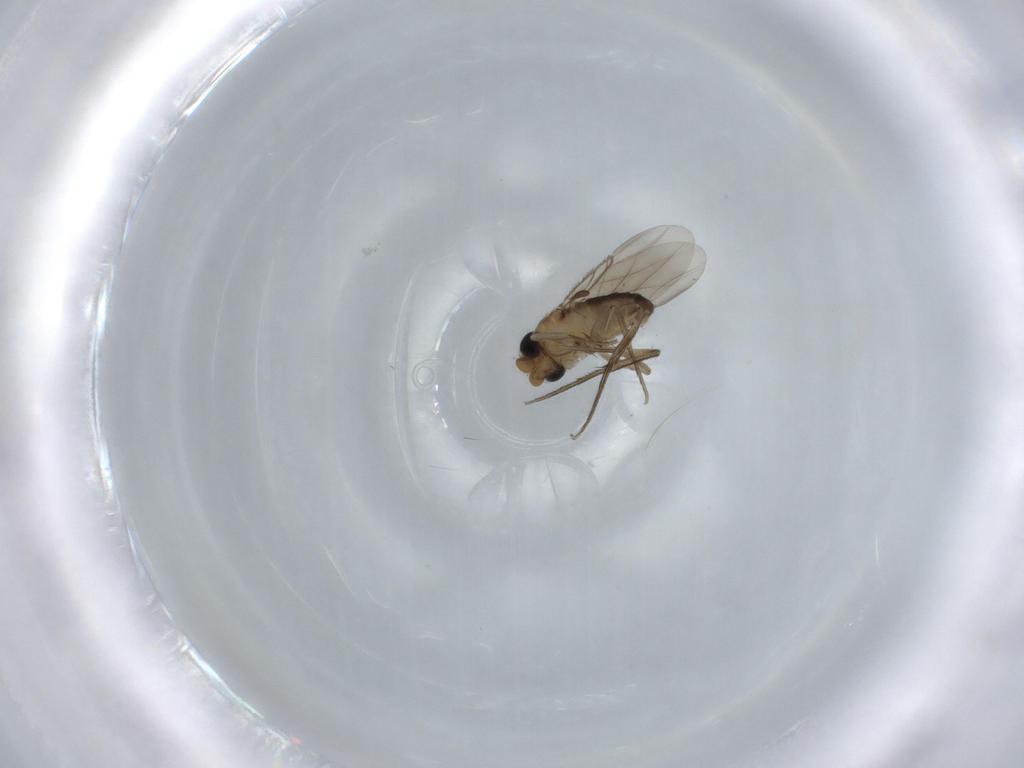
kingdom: Animalia
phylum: Arthropoda
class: Insecta
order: Diptera
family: Phoridae
